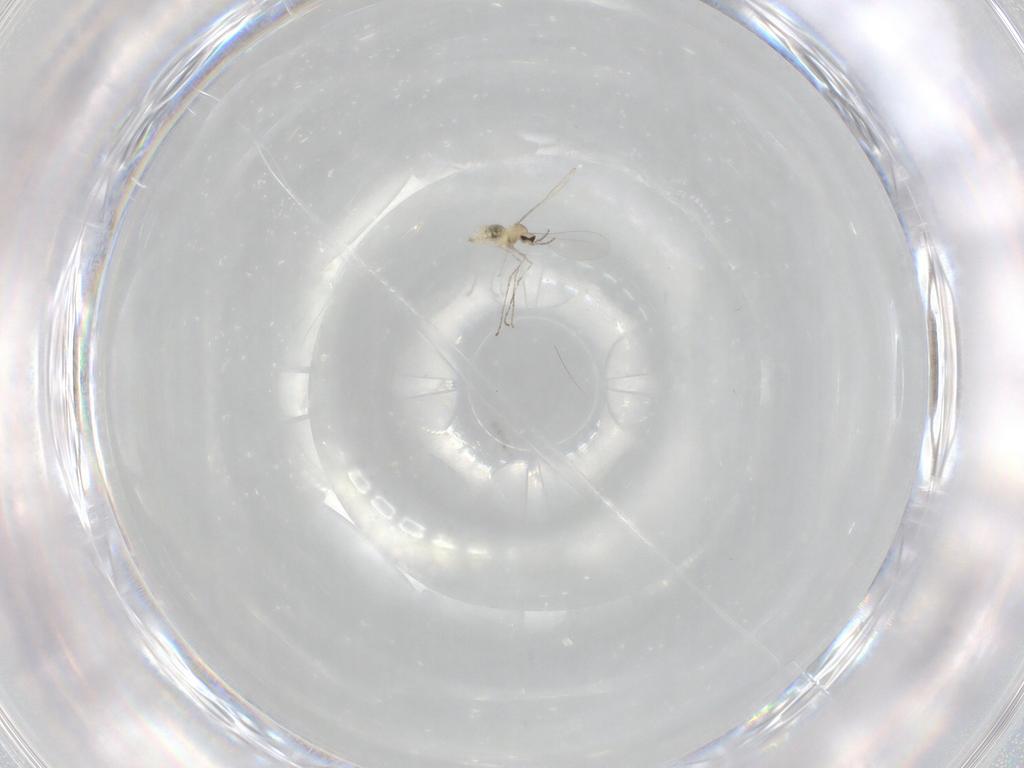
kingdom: Animalia
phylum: Arthropoda
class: Insecta
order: Diptera
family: Cecidomyiidae
